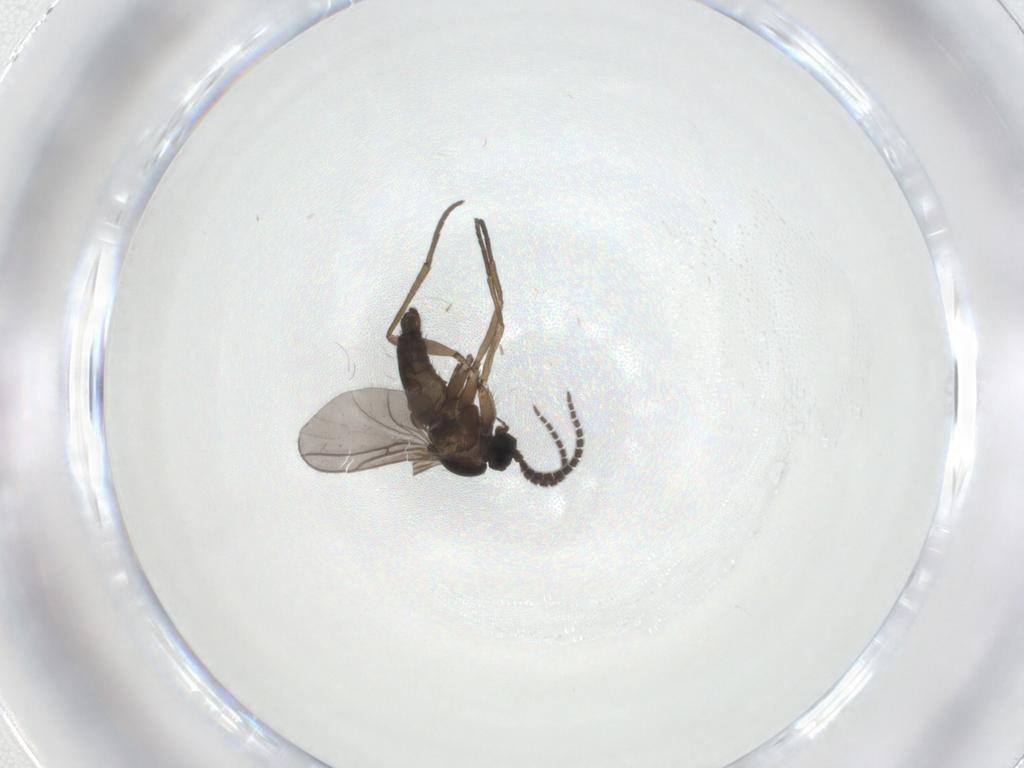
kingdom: Animalia
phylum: Arthropoda
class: Insecta
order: Diptera
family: Sciaridae
